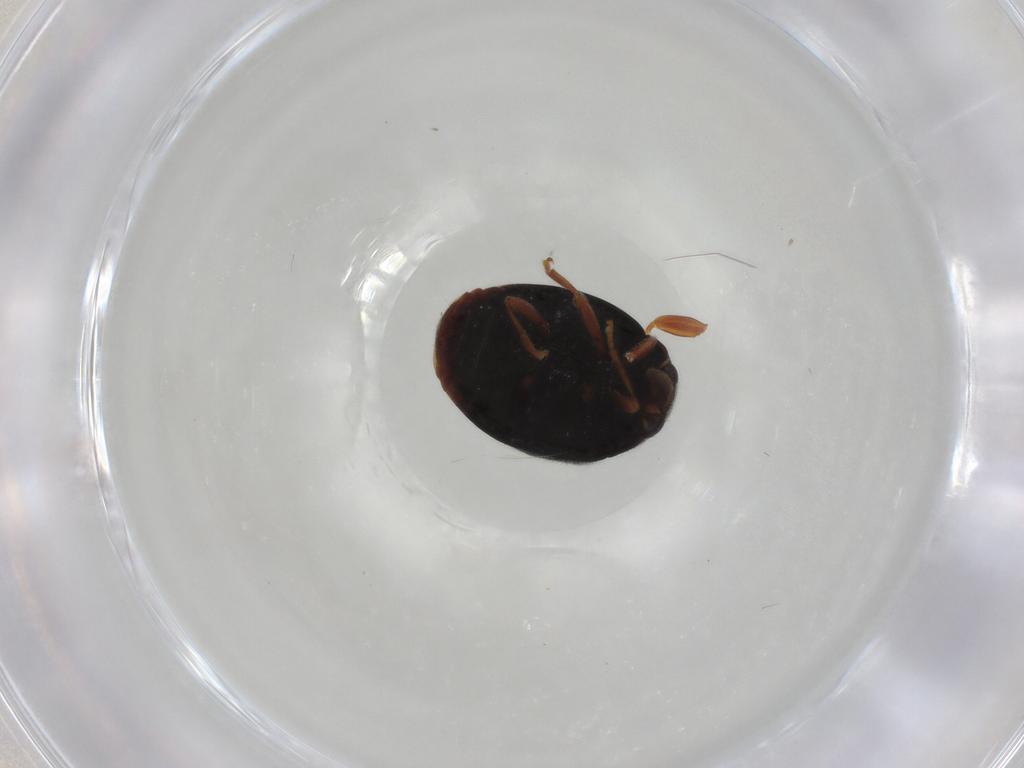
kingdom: Animalia
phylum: Arthropoda
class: Insecta
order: Coleoptera
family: Coccinellidae
